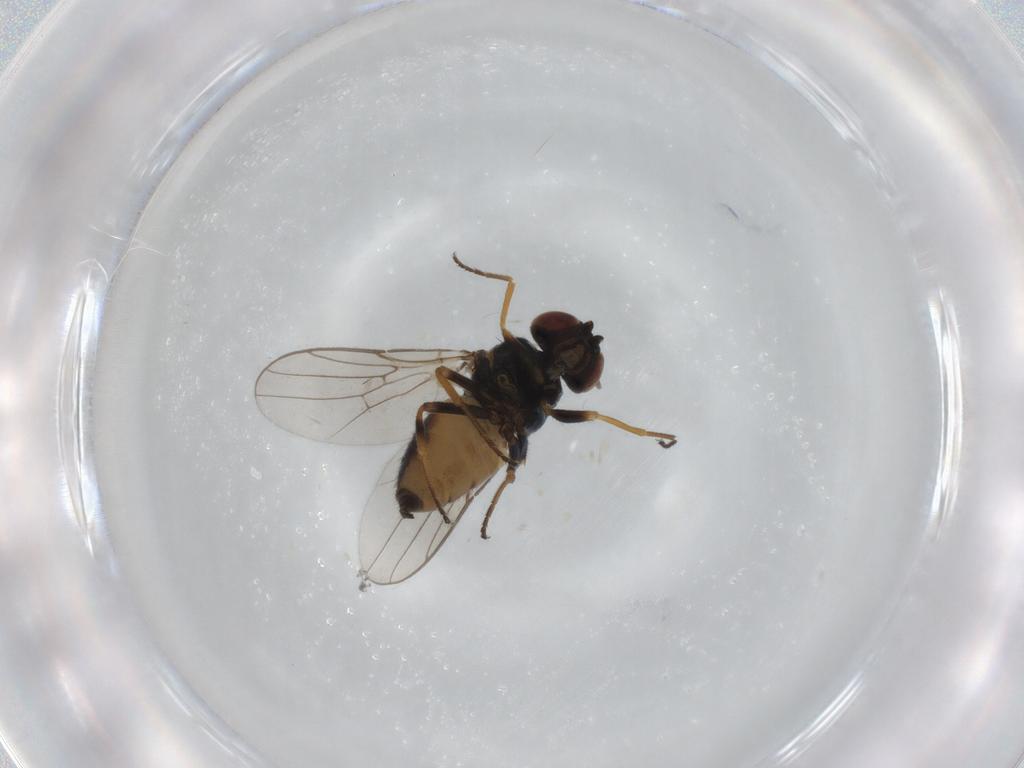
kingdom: Animalia
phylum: Arthropoda
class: Insecta
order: Diptera
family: Chloropidae
